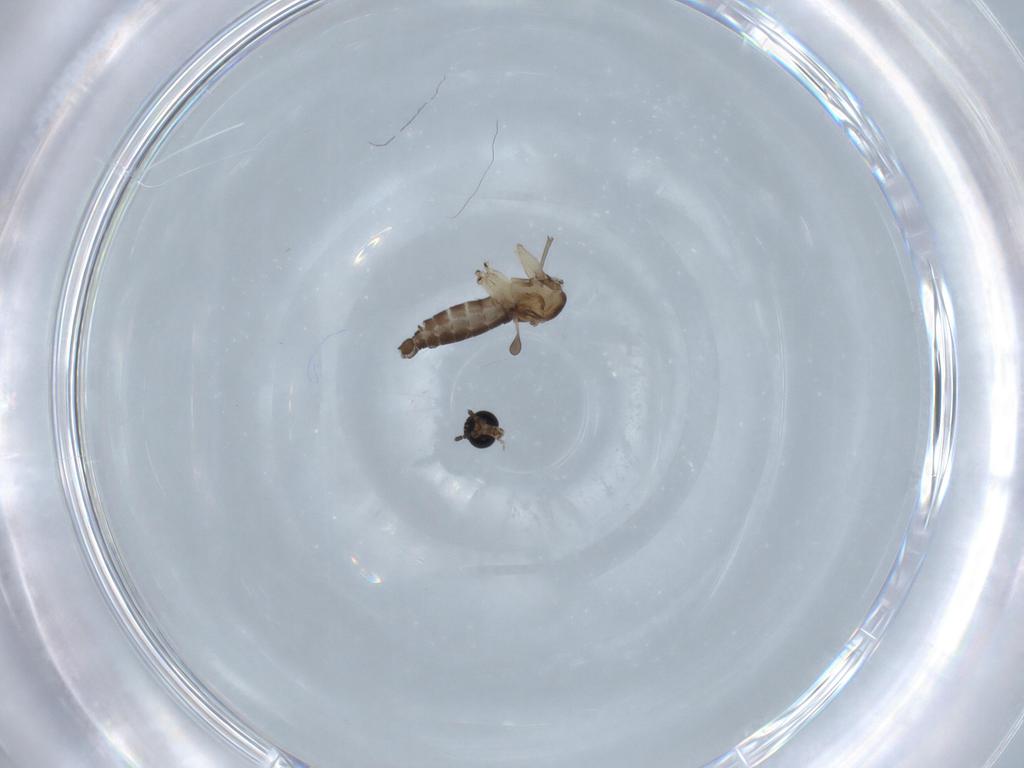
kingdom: Animalia
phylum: Arthropoda
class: Insecta
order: Diptera
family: Sciaridae
